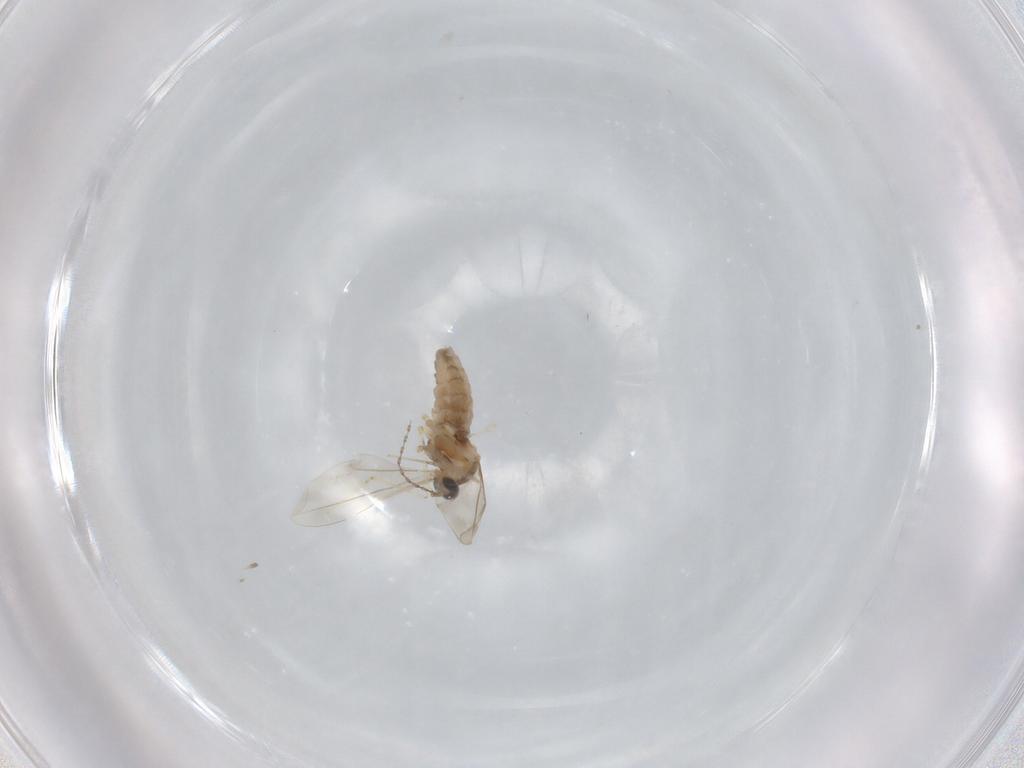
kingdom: Animalia
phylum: Arthropoda
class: Insecta
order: Diptera
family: Cecidomyiidae
